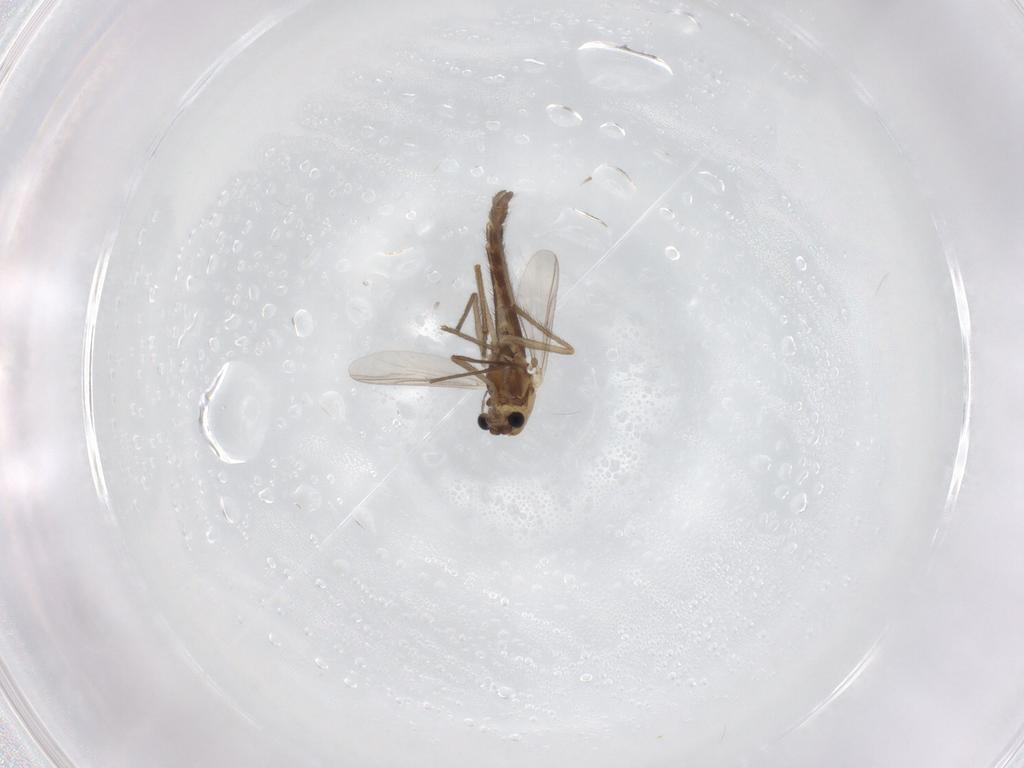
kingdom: Animalia
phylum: Arthropoda
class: Insecta
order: Diptera
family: Chironomidae
